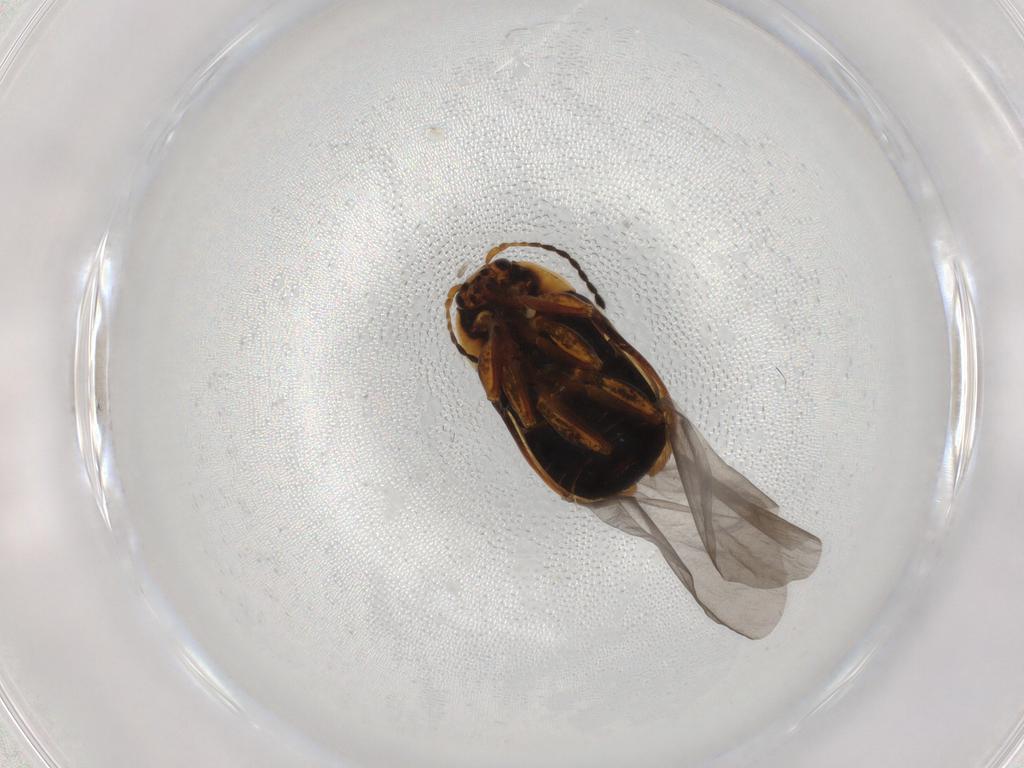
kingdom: Animalia
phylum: Arthropoda
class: Insecta
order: Coleoptera
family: Chrysomelidae
